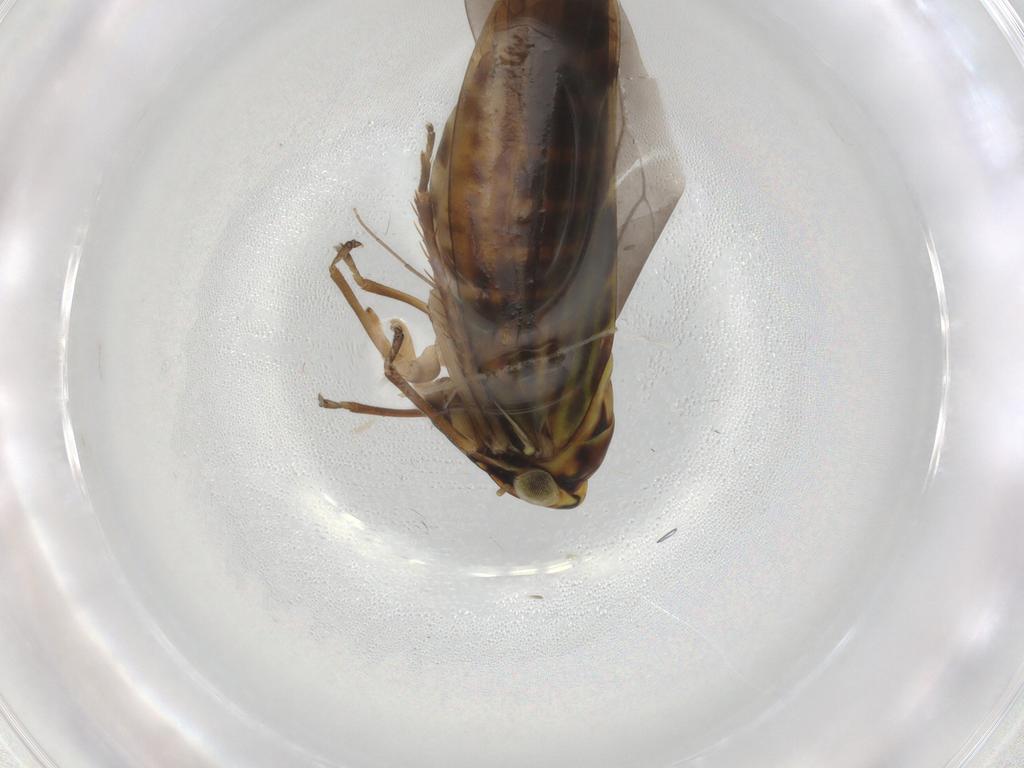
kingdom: Animalia
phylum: Arthropoda
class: Insecta
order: Hemiptera
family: Cicadellidae
